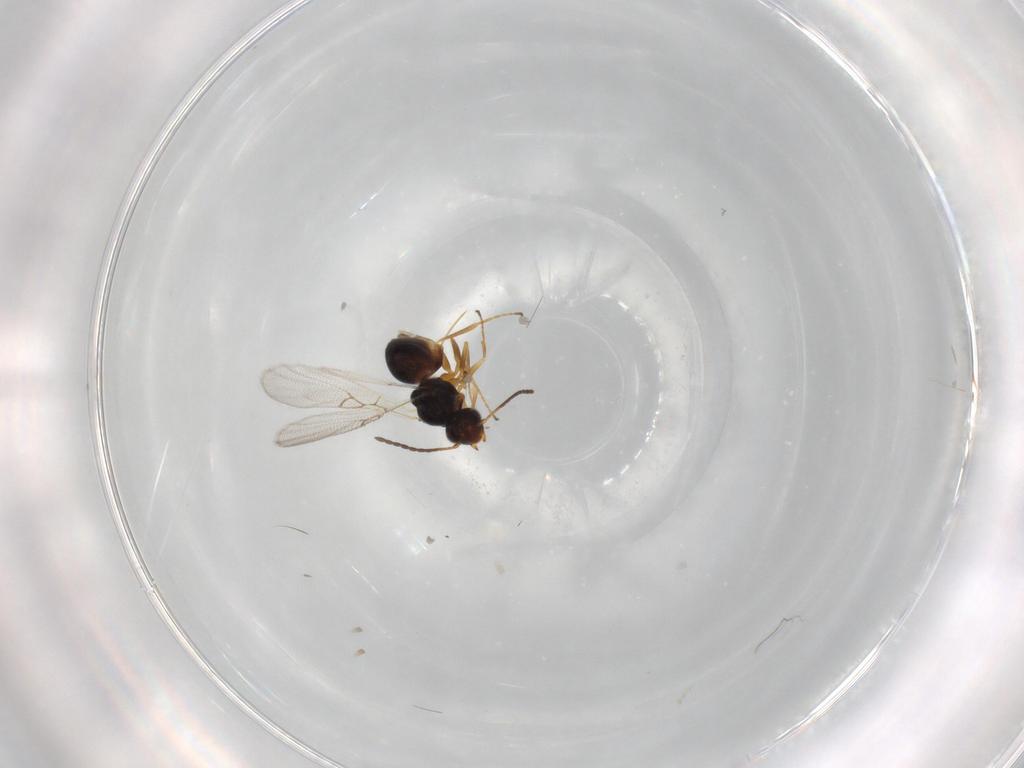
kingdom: Animalia
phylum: Arthropoda
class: Insecta
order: Hymenoptera
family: Figitidae
